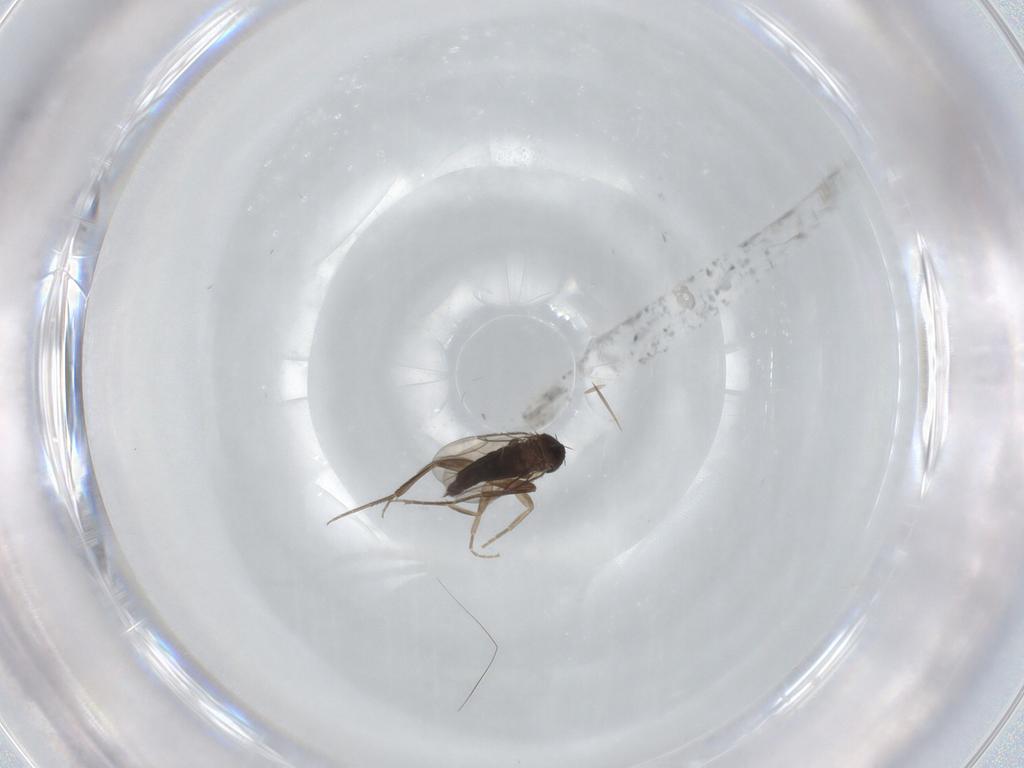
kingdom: Animalia
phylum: Arthropoda
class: Insecta
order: Diptera
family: Phoridae
